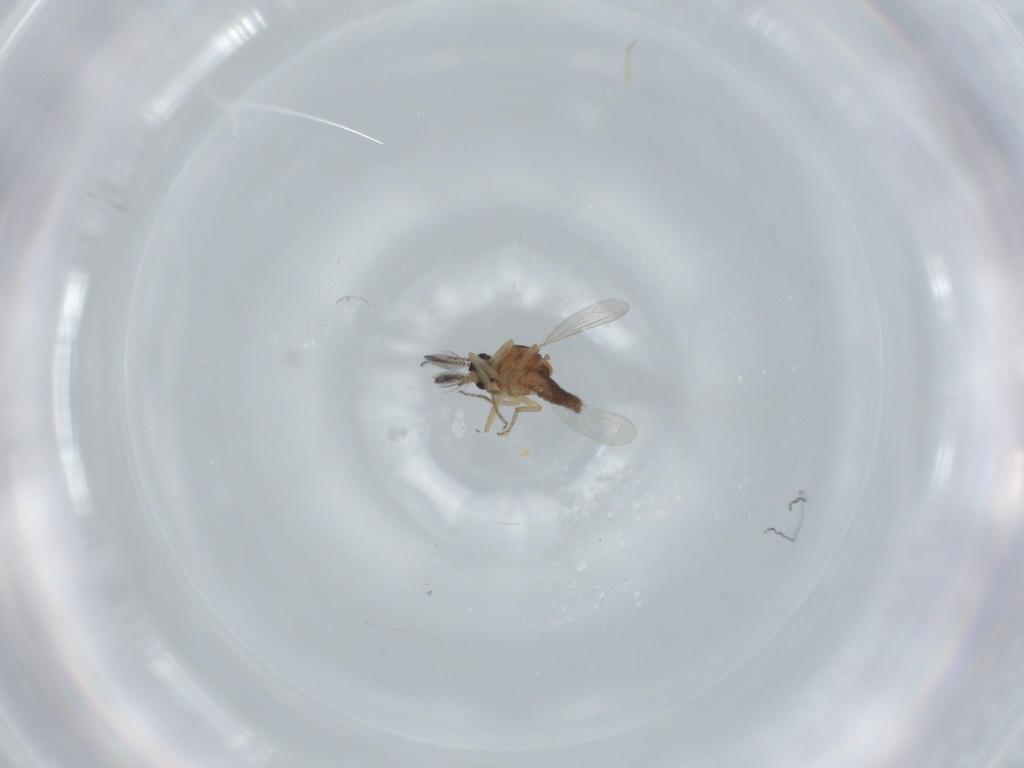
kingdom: Animalia
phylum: Arthropoda
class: Insecta
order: Diptera
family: Ceratopogonidae
